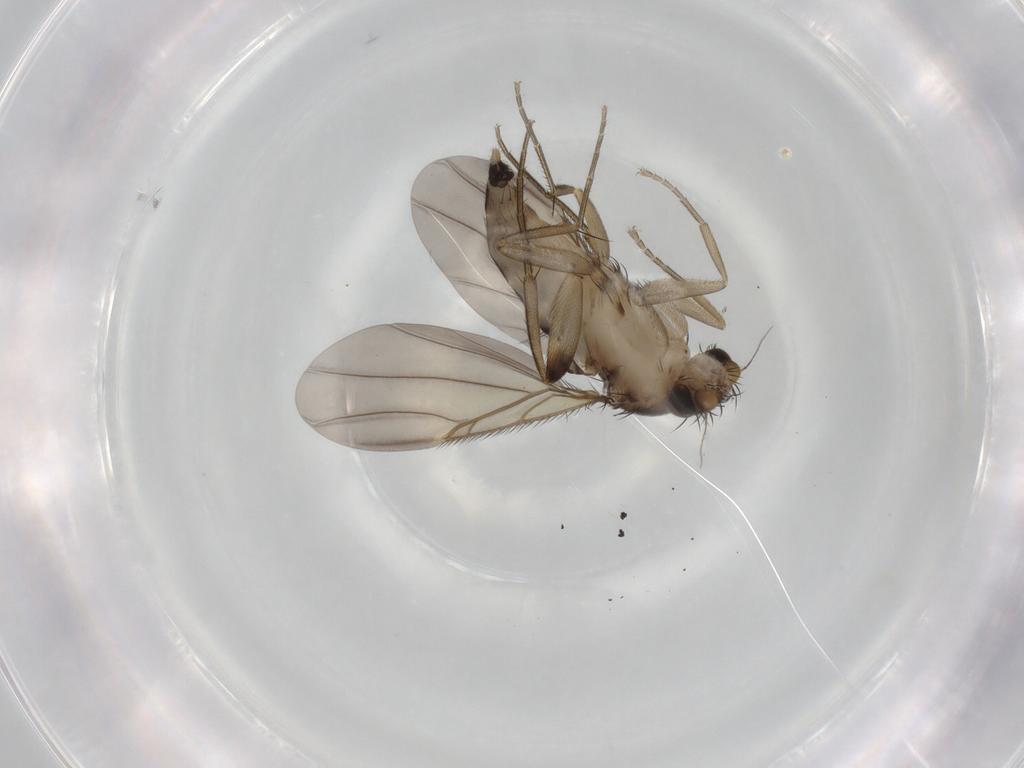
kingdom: Animalia
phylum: Arthropoda
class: Insecta
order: Diptera
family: Phoridae
